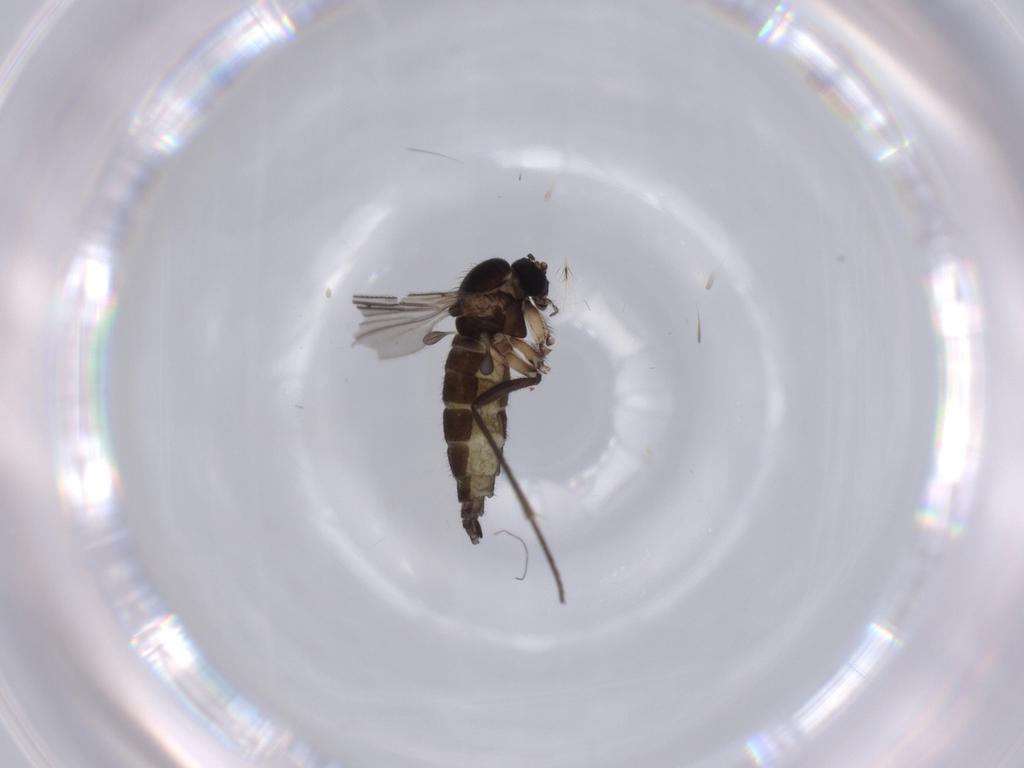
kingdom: Animalia
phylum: Arthropoda
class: Insecta
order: Diptera
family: Sciaridae
